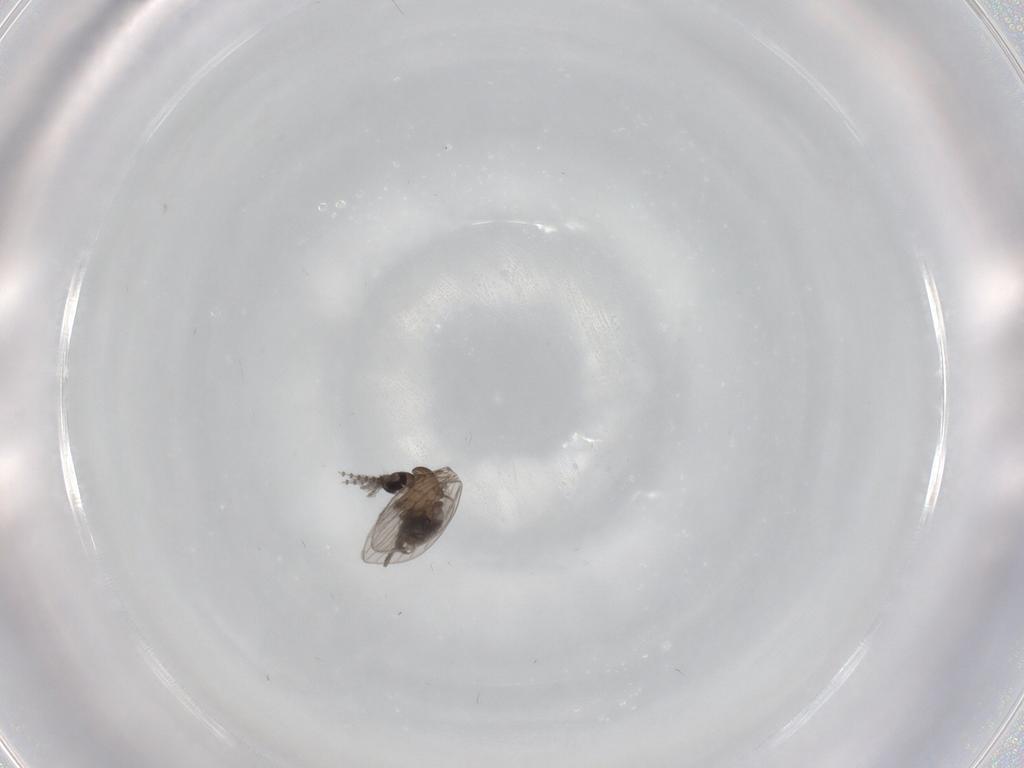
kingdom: Animalia
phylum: Arthropoda
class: Insecta
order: Diptera
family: Psychodidae
